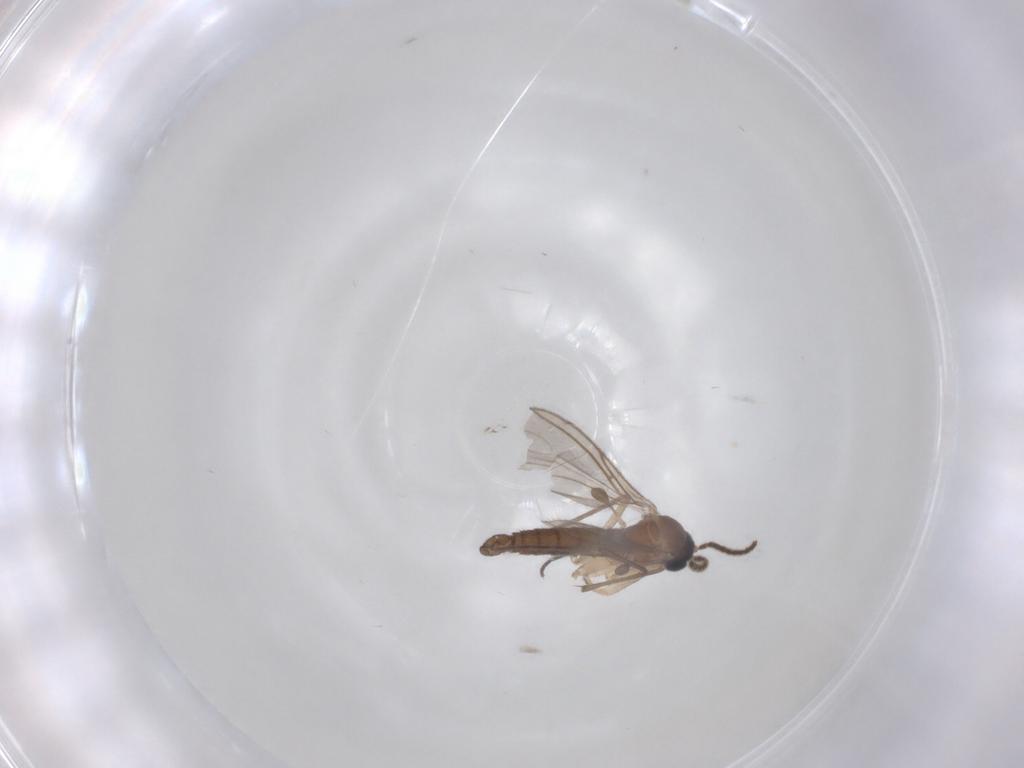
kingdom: Animalia
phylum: Arthropoda
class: Insecta
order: Diptera
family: Sciaridae
